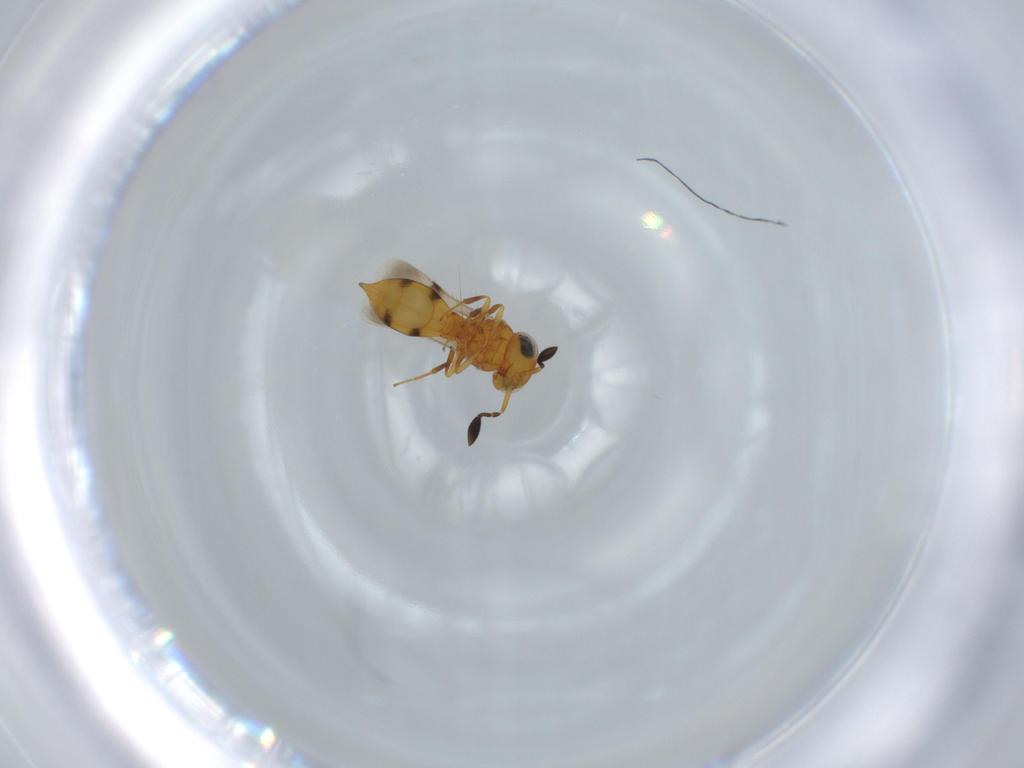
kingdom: Animalia
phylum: Arthropoda
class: Insecta
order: Hymenoptera
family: Scelionidae
